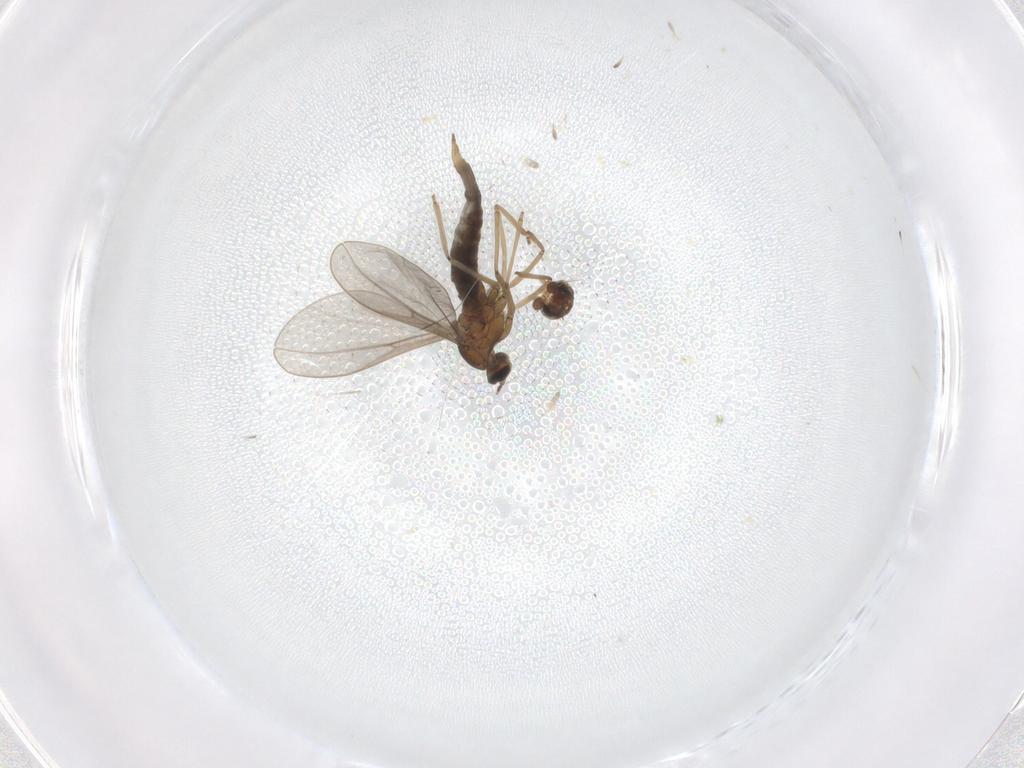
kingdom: Animalia
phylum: Arthropoda
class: Insecta
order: Diptera
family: Cecidomyiidae
